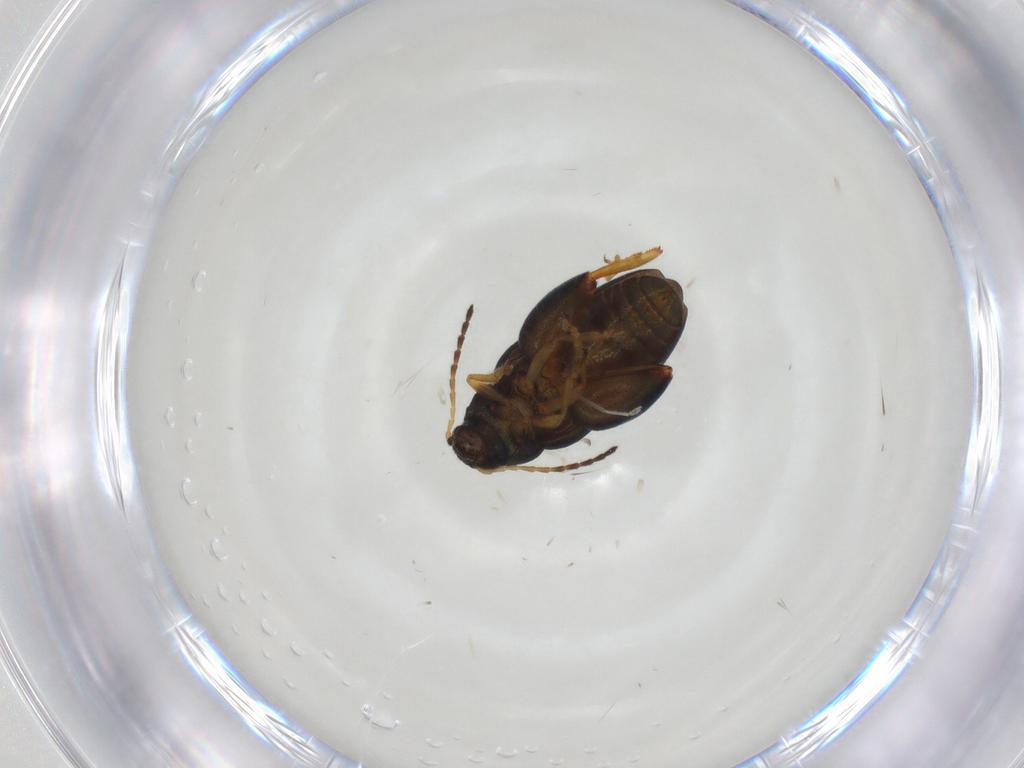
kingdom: Animalia
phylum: Arthropoda
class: Insecta
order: Coleoptera
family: Chrysomelidae
